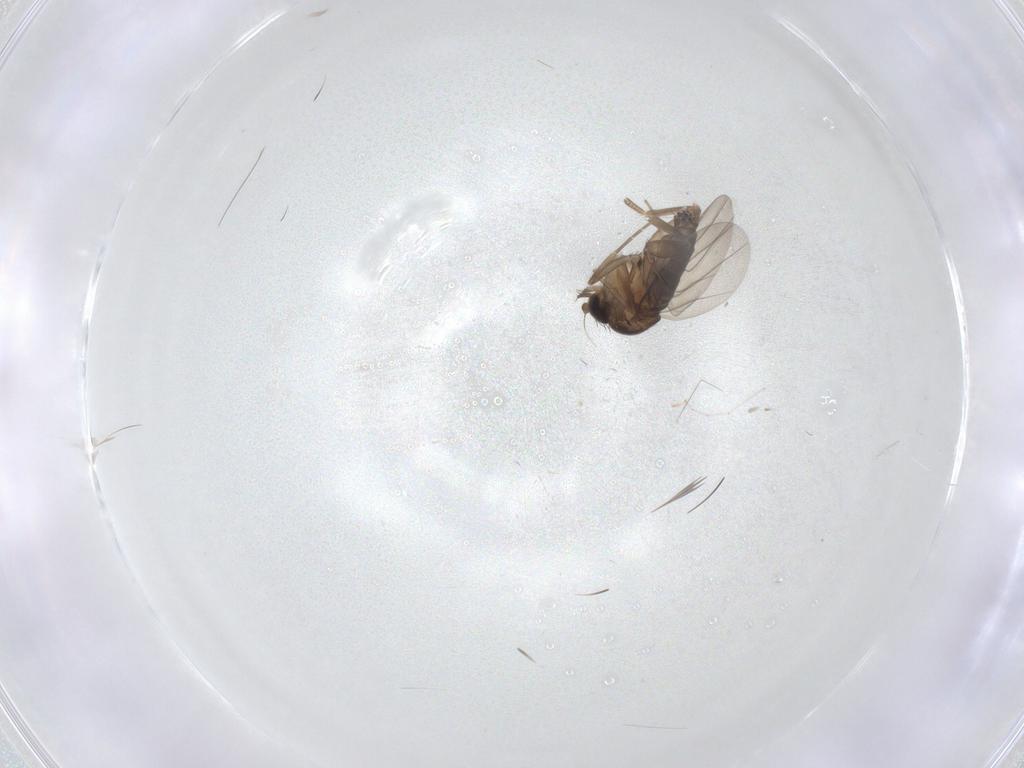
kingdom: Animalia
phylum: Arthropoda
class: Insecta
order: Diptera
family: Phoridae
